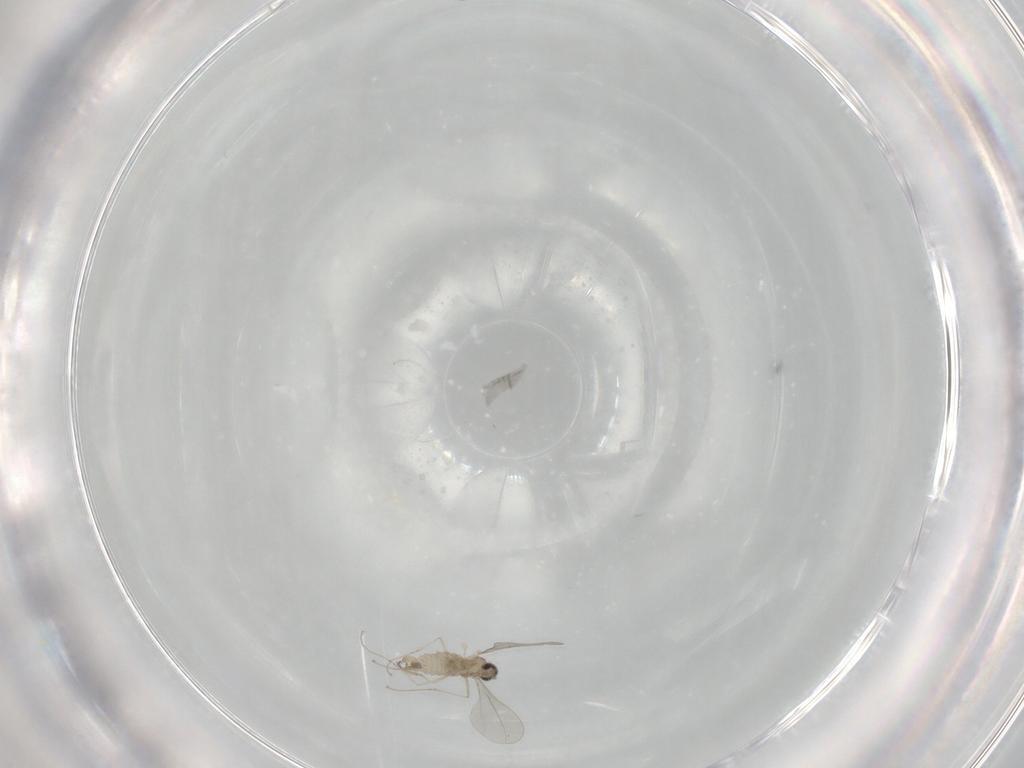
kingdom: Animalia
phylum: Arthropoda
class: Insecta
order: Diptera
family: Cecidomyiidae
